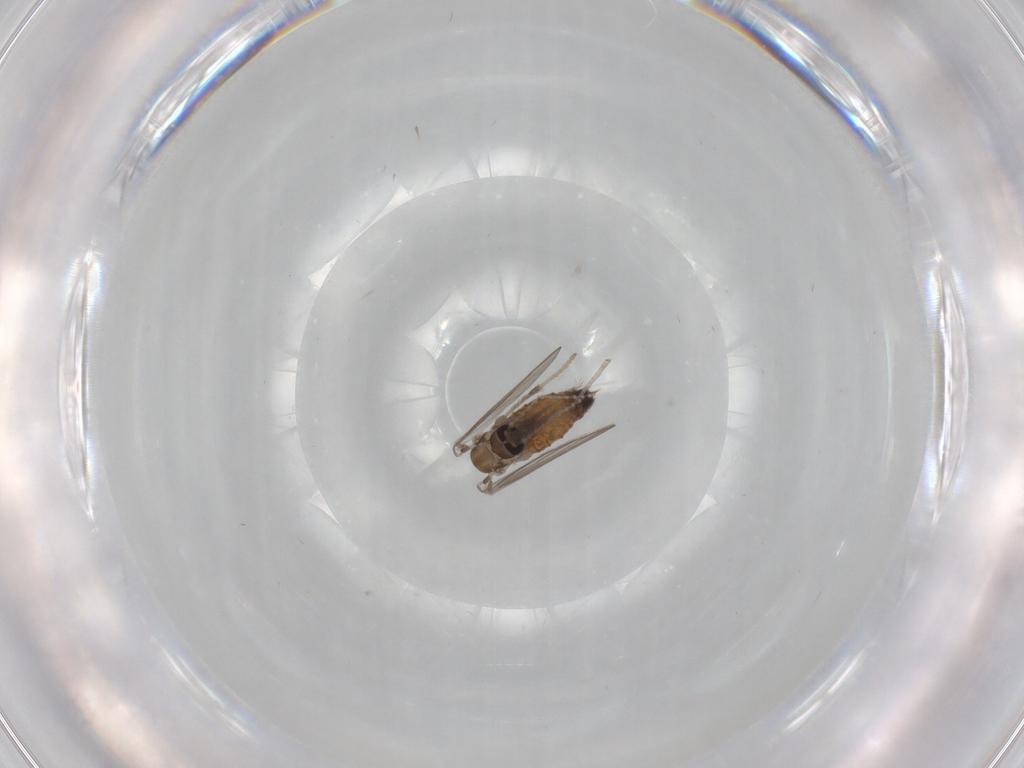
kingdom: Animalia
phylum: Arthropoda
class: Insecta
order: Diptera
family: Psychodidae
